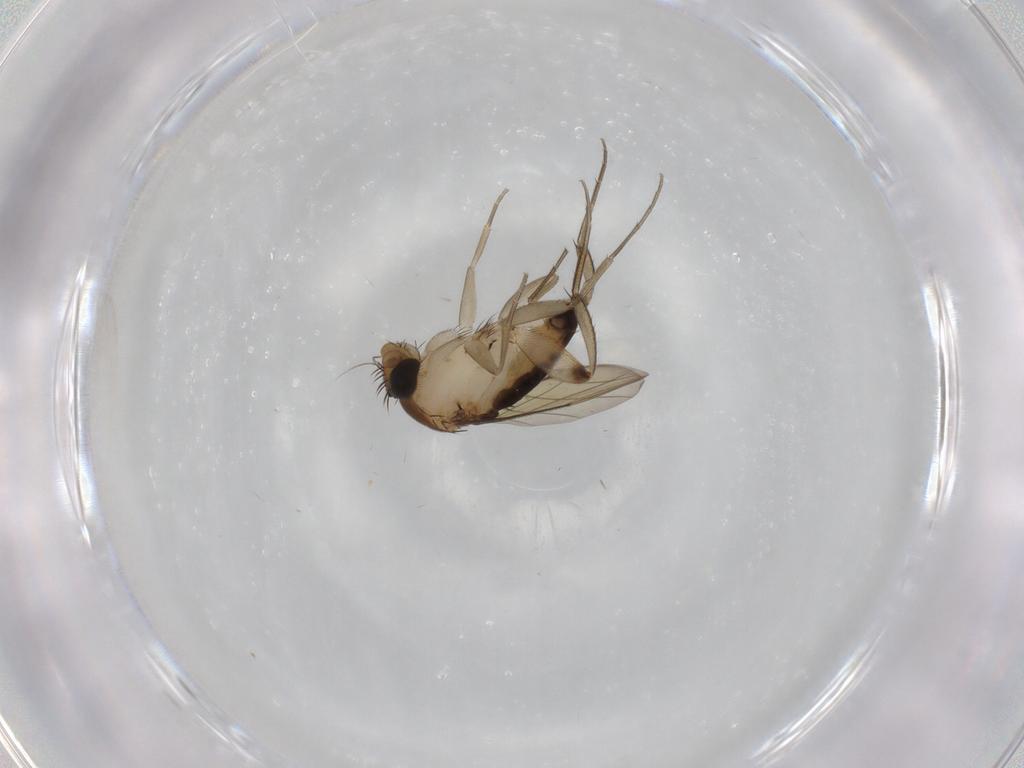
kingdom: Animalia
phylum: Arthropoda
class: Insecta
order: Diptera
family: Phoridae
